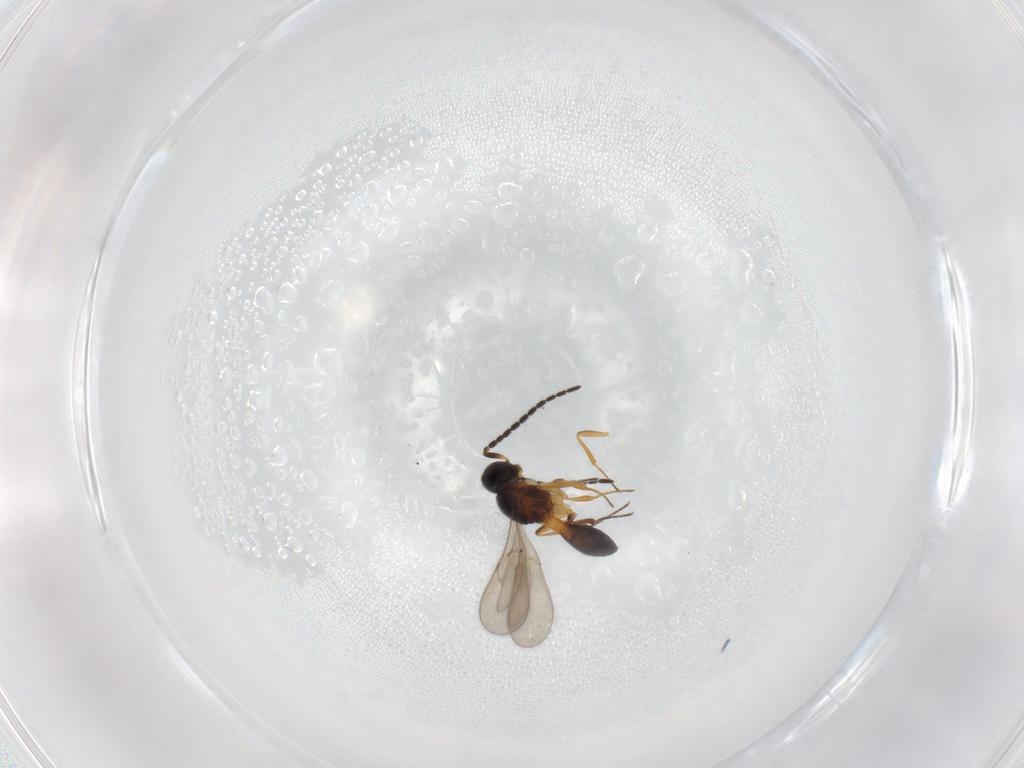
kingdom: Animalia
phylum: Arthropoda
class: Insecta
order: Hymenoptera
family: Scelionidae
